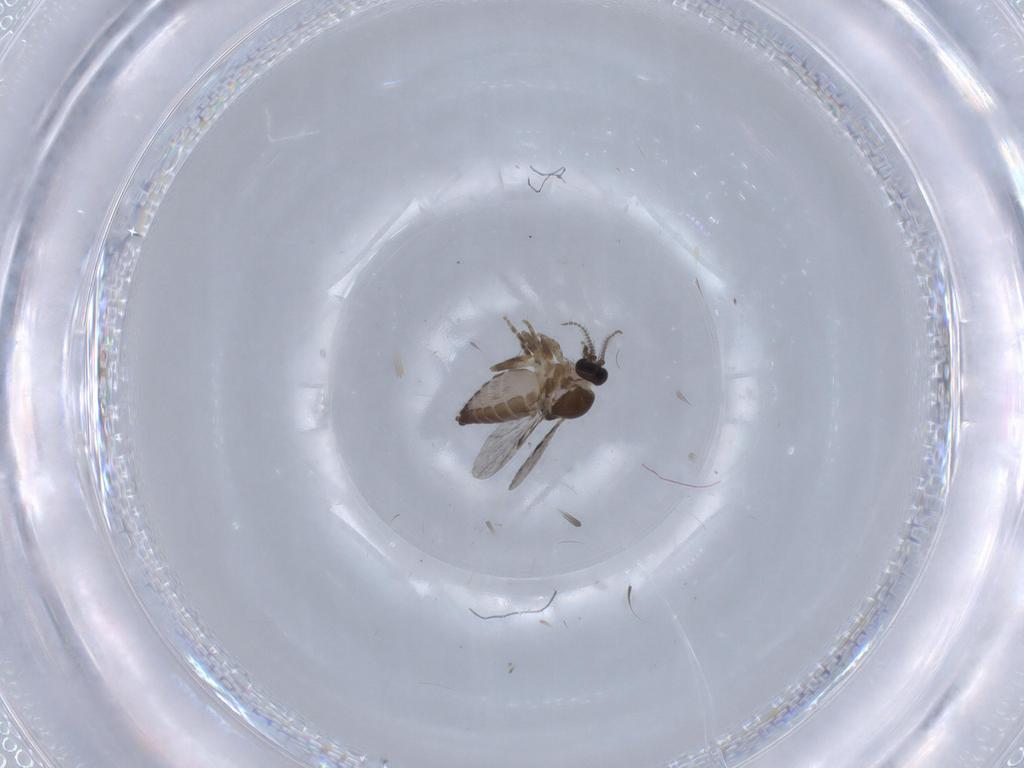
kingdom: Animalia
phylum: Arthropoda
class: Insecta
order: Diptera
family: Ceratopogonidae
